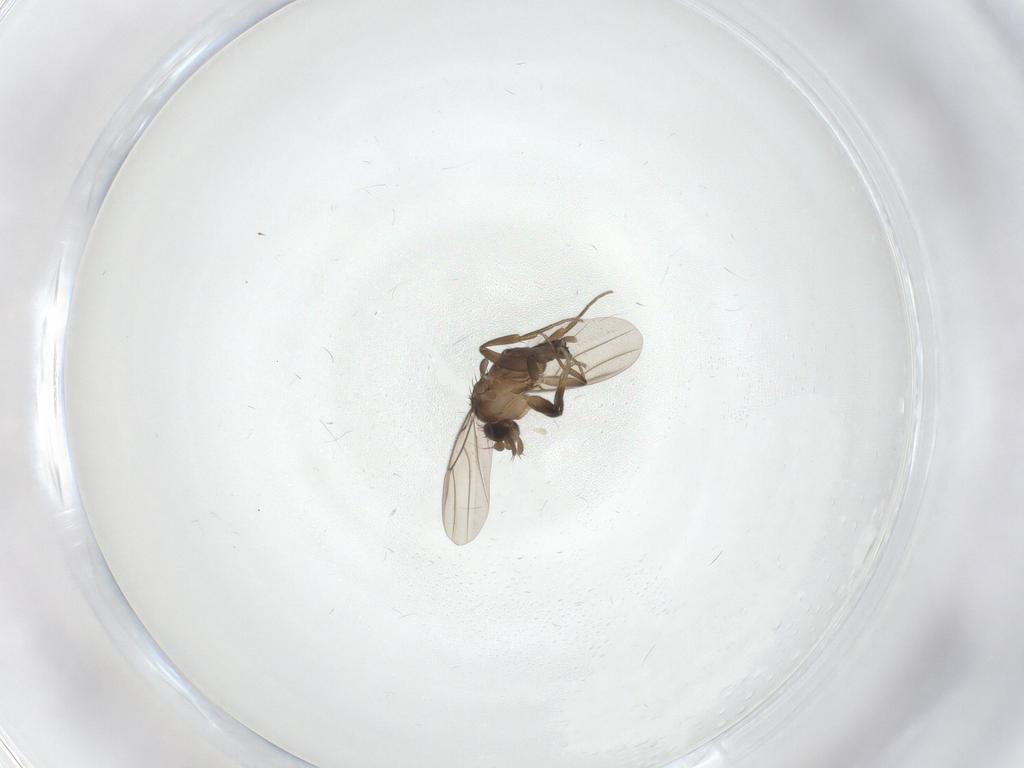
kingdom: Animalia
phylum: Arthropoda
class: Insecta
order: Diptera
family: Phoridae
